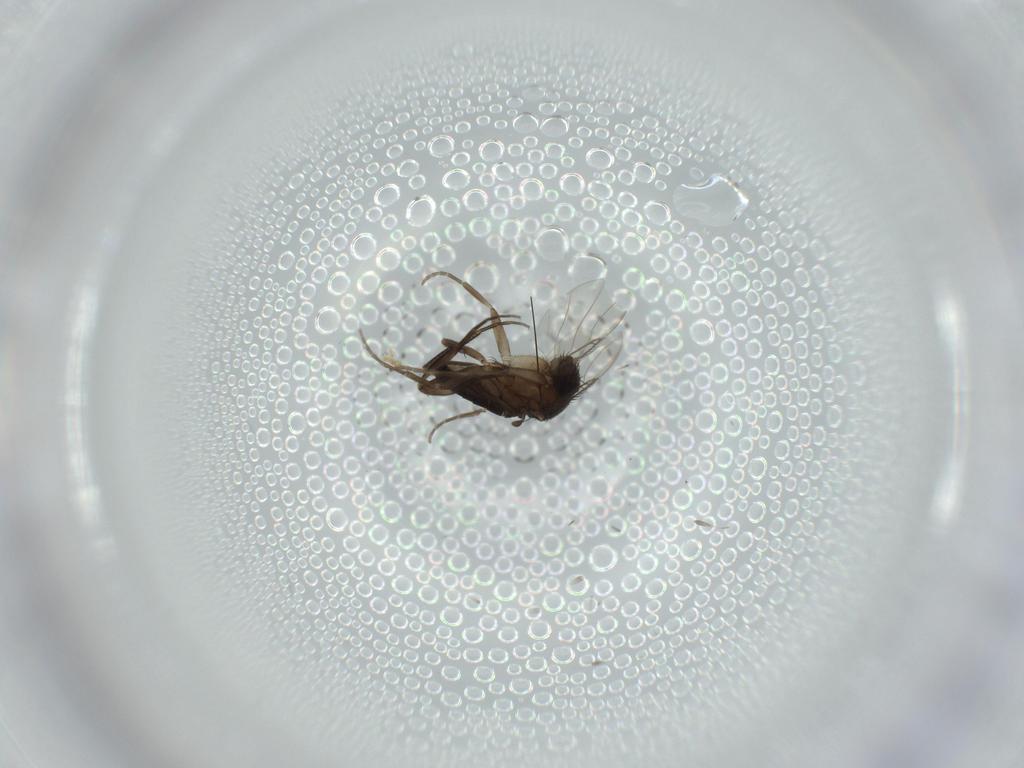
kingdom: Animalia
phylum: Arthropoda
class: Insecta
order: Diptera
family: Phoridae
